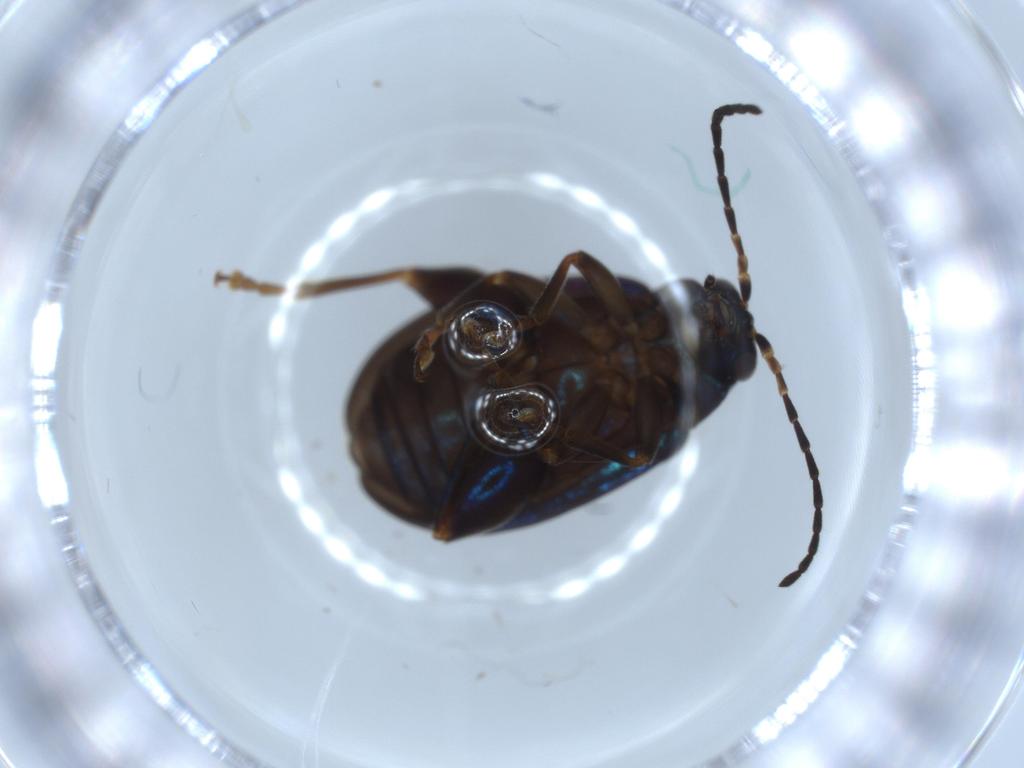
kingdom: Animalia
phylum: Arthropoda
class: Insecta
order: Coleoptera
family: Chrysomelidae
